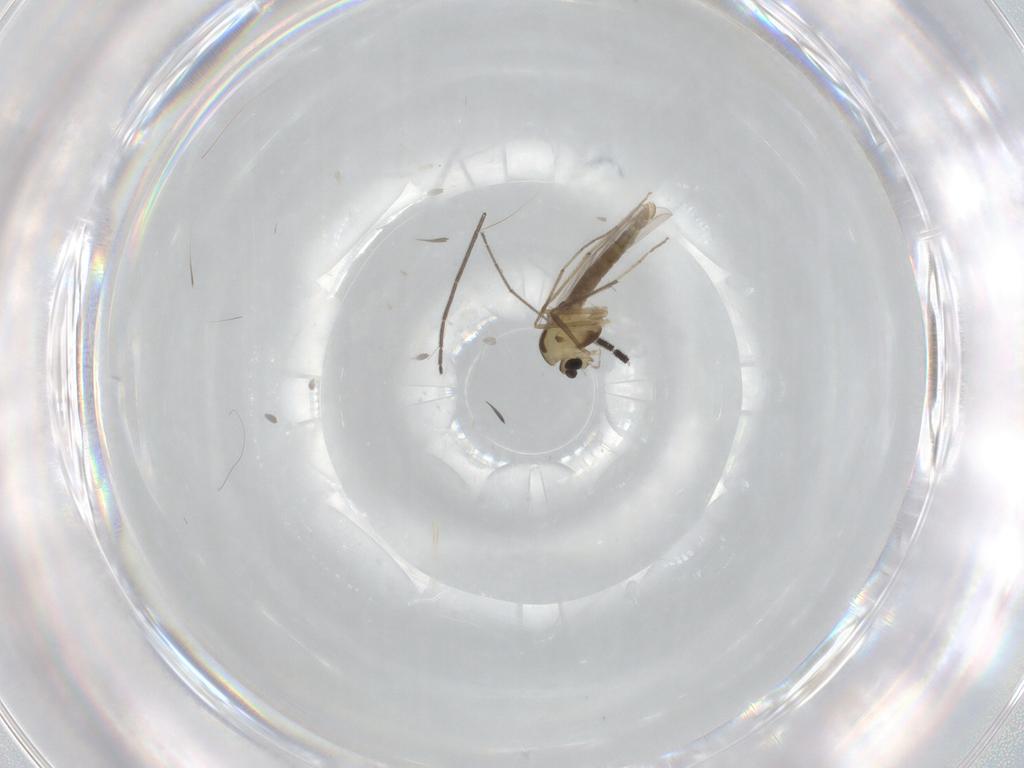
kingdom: Animalia
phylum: Arthropoda
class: Insecta
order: Diptera
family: Chironomidae
